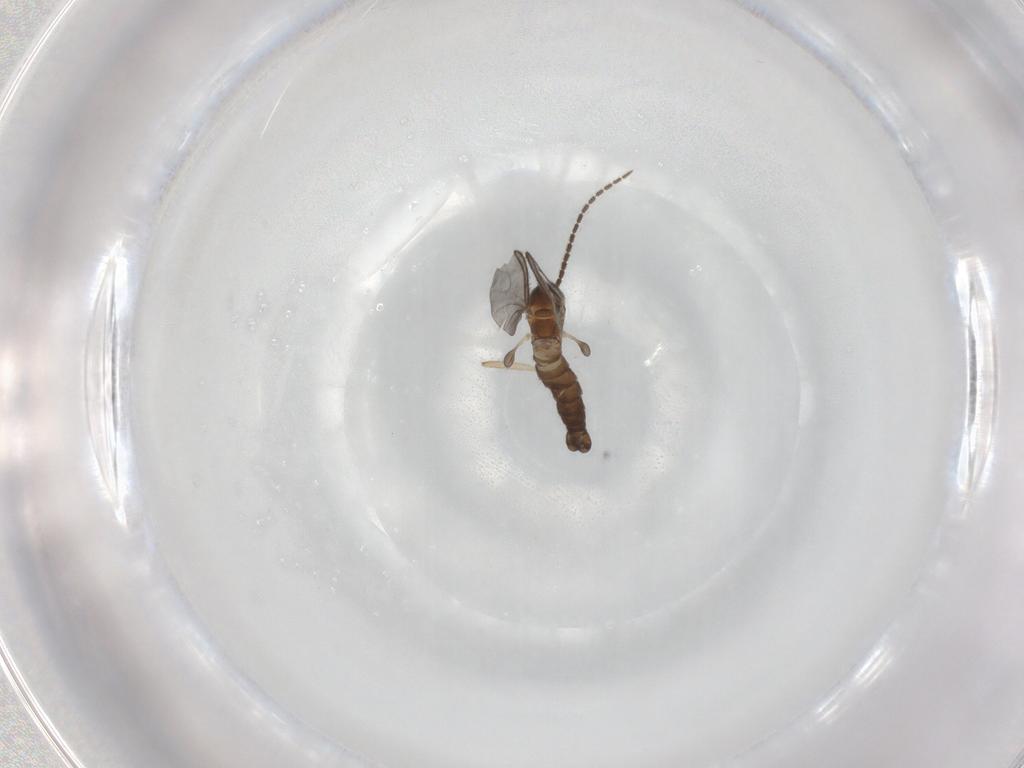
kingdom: Animalia
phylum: Arthropoda
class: Insecta
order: Diptera
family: Sciaridae
